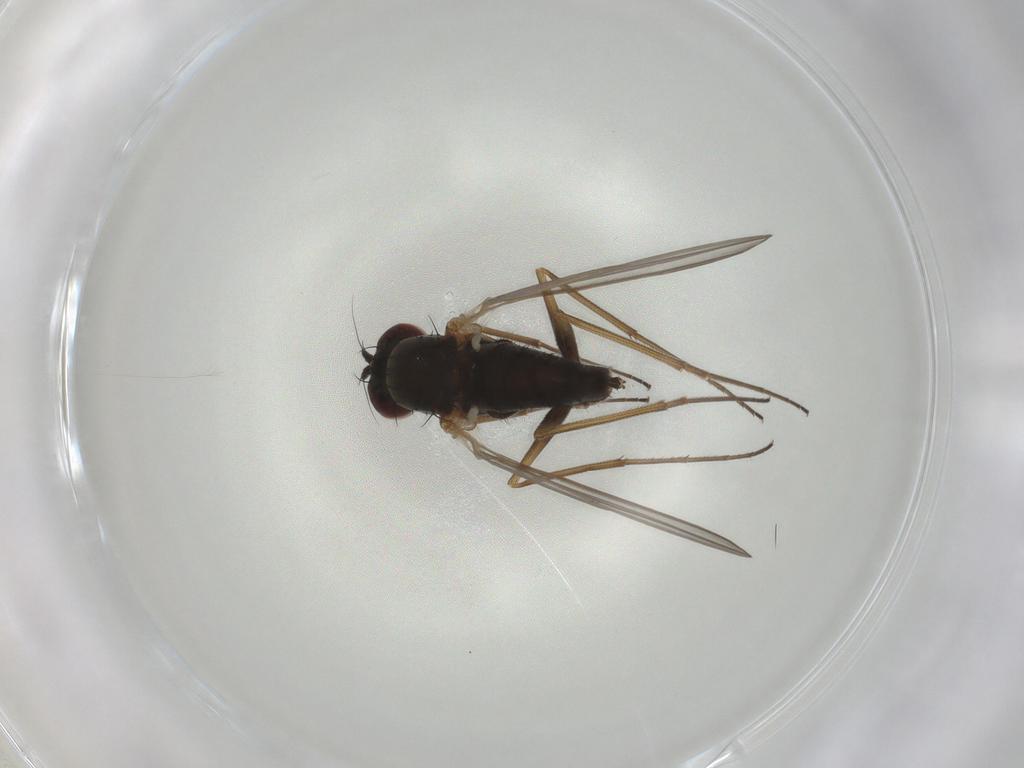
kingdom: Animalia
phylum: Arthropoda
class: Insecta
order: Diptera
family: Dolichopodidae
